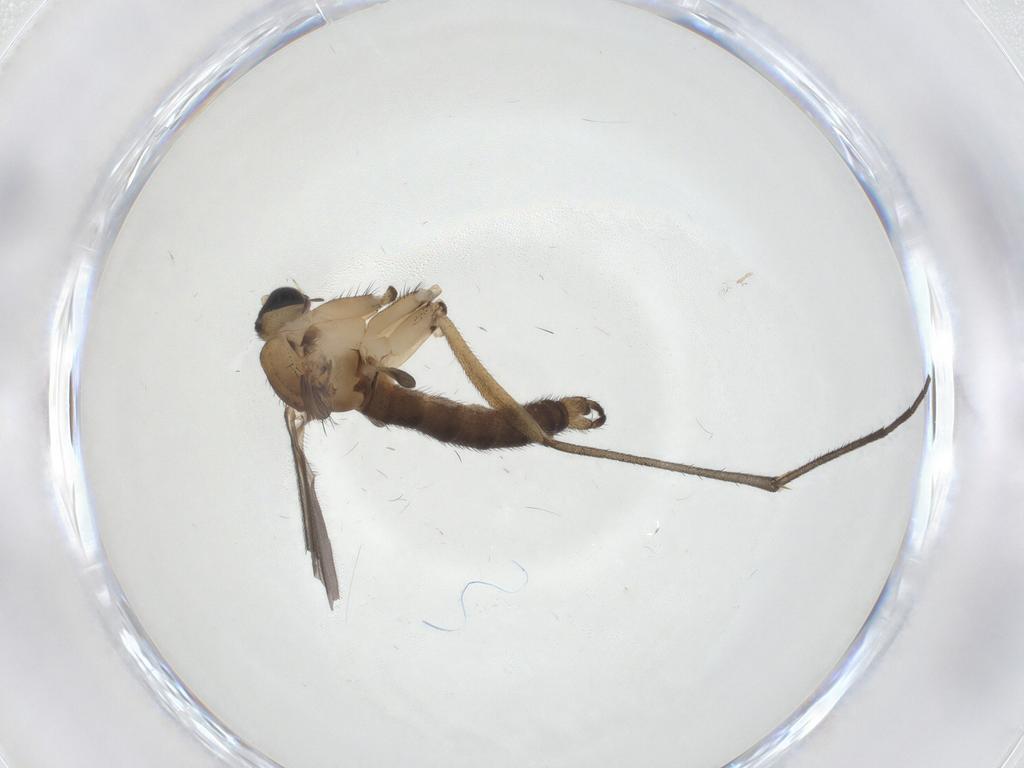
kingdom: Animalia
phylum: Arthropoda
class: Insecta
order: Diptera
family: Sciaridae
